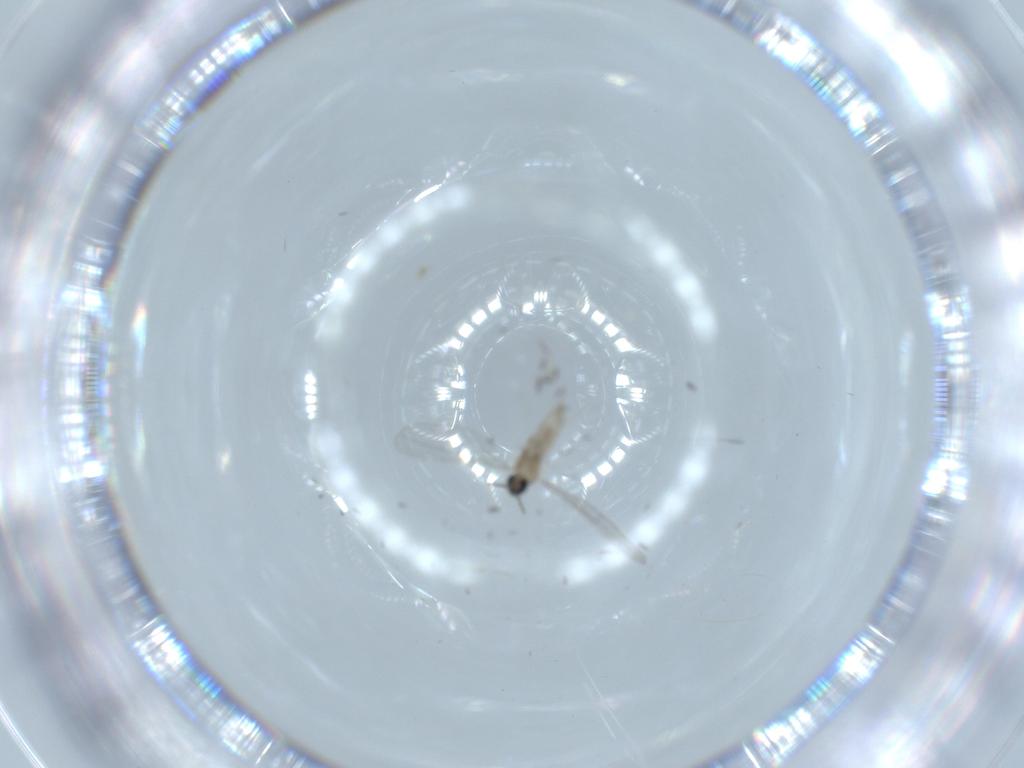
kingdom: Animalia
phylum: Arthropoda
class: Insecta
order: Diptera
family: Cecidomyiidae
